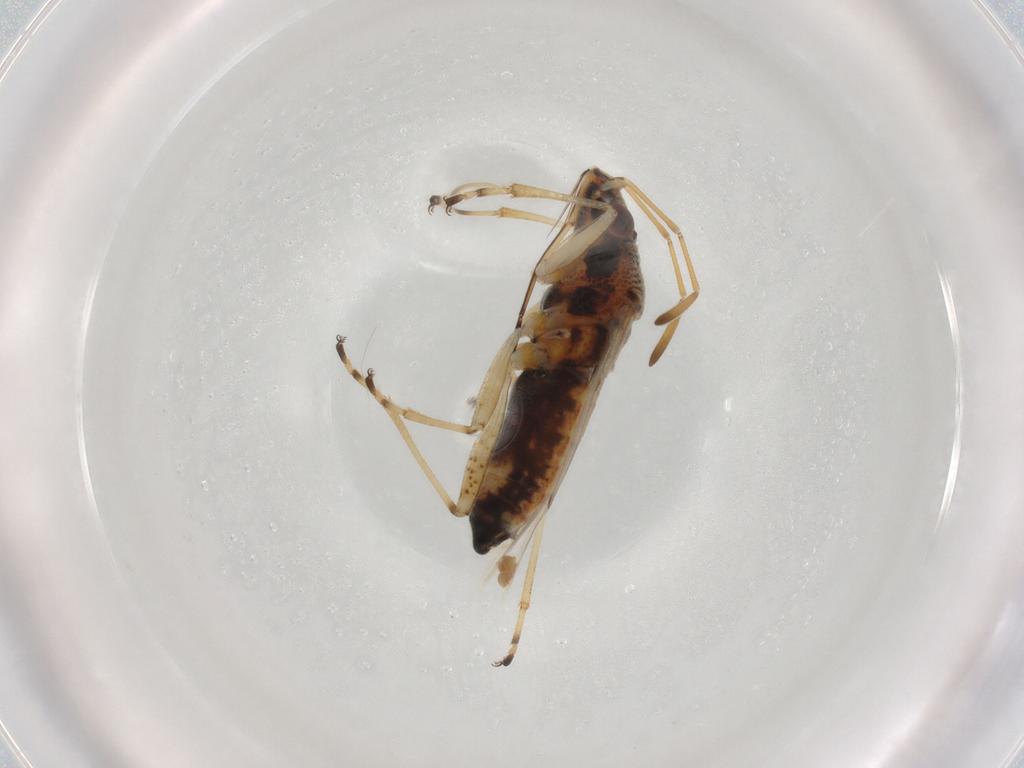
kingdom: Animalia
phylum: Arthropoda
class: Insecta
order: Hemiptera
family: Lygaeidae
